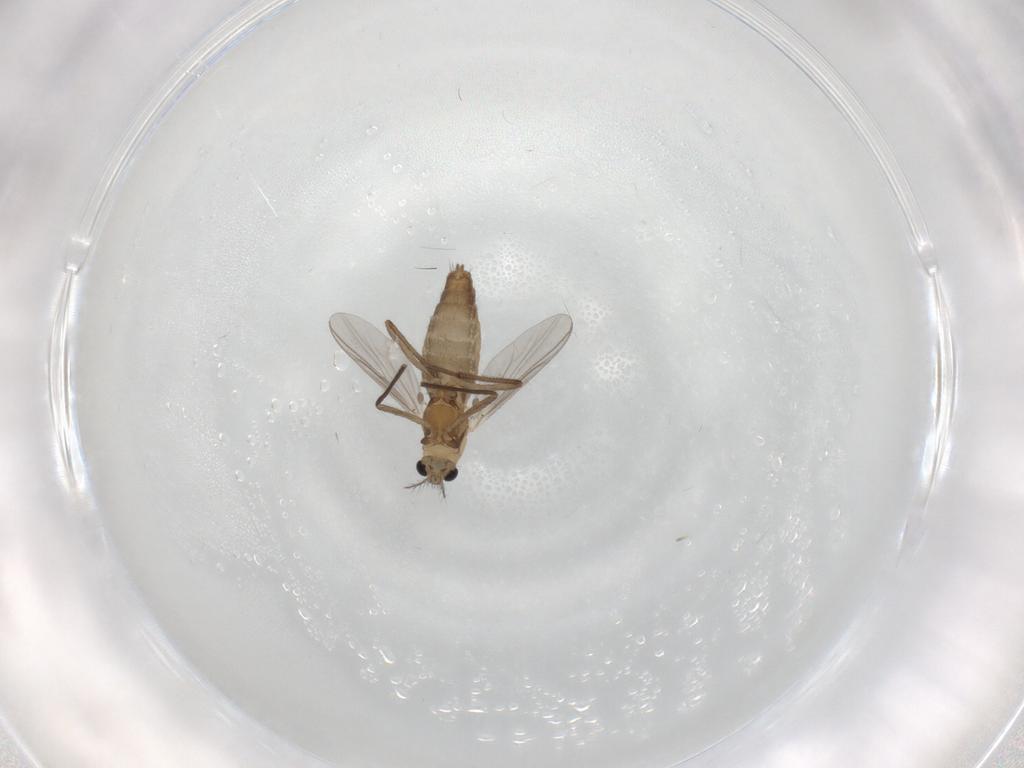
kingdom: Animalia
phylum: Arthropoda
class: Insecta
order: Diptera
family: Chironomidae
